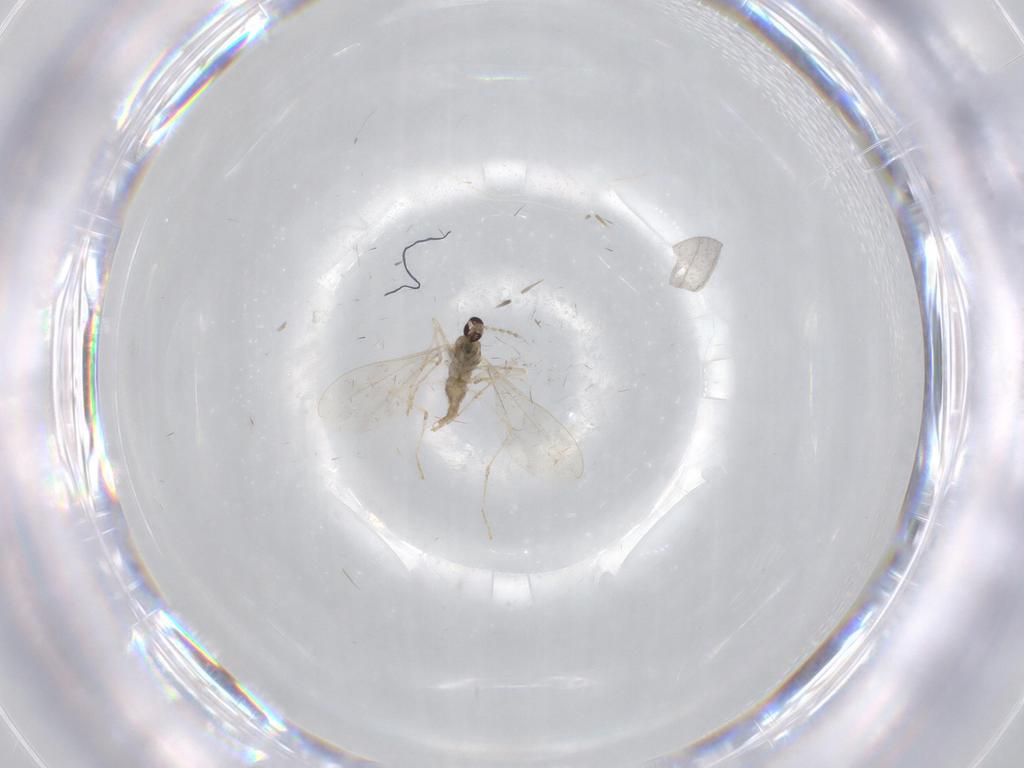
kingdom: Animalia
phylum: Arthropoda
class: Insecta
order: Diptera
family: Chironomidae
